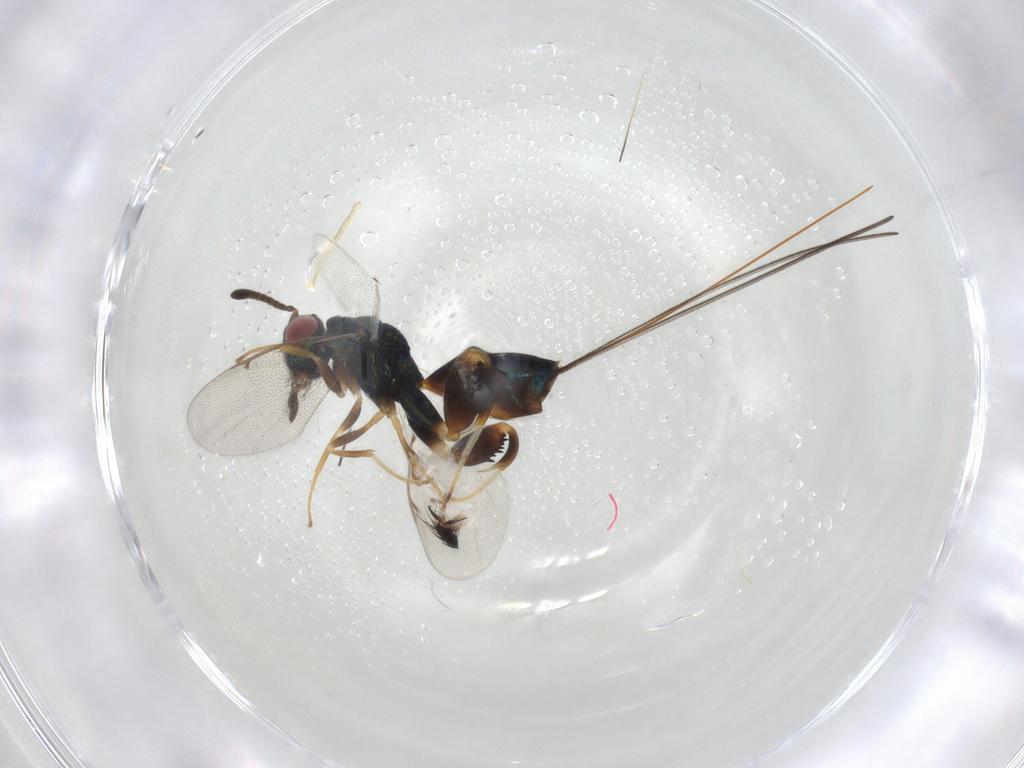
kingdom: Animalia
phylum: Arthropoda
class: Insecta
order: Hymenoptera
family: Torymidae
